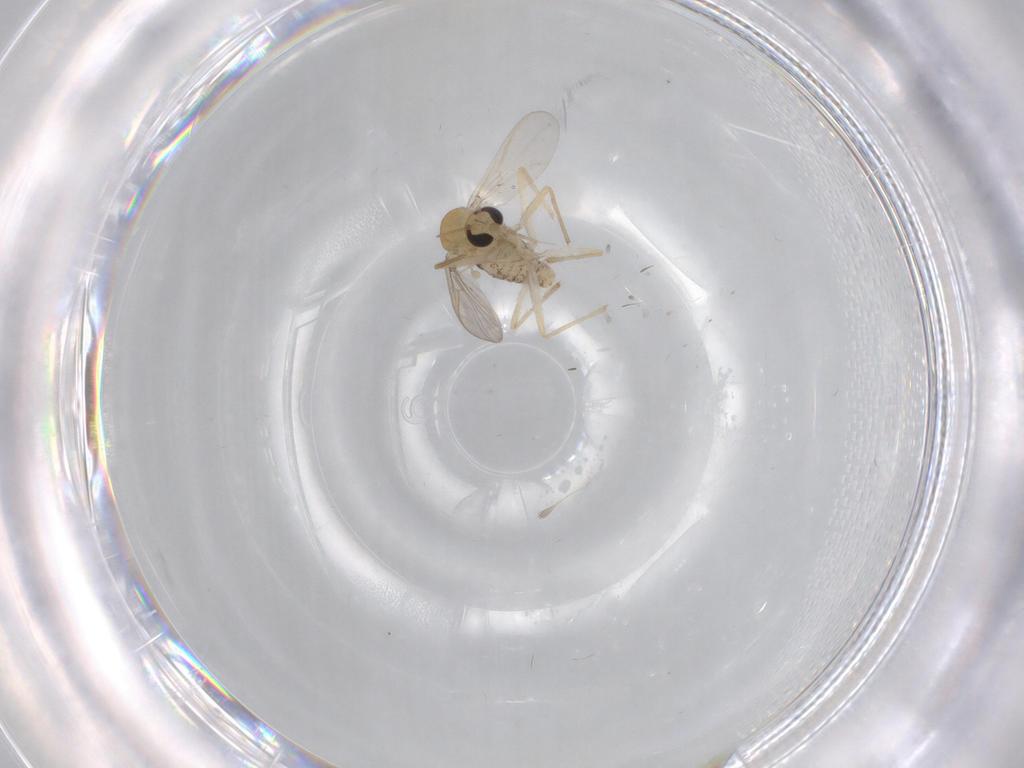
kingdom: Animalia
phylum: Arthropoda
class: Insecta
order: Diptera
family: Chironomidae
